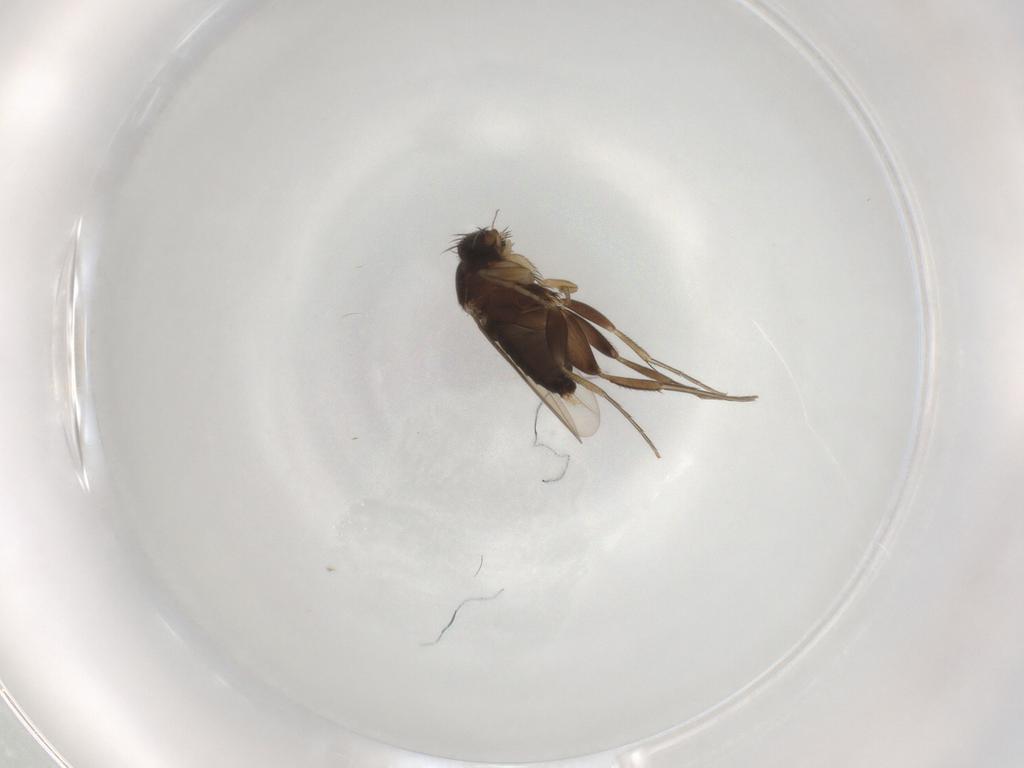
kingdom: Animalia
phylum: Arthropoda
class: Insecta
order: Diptera
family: Phoridae
